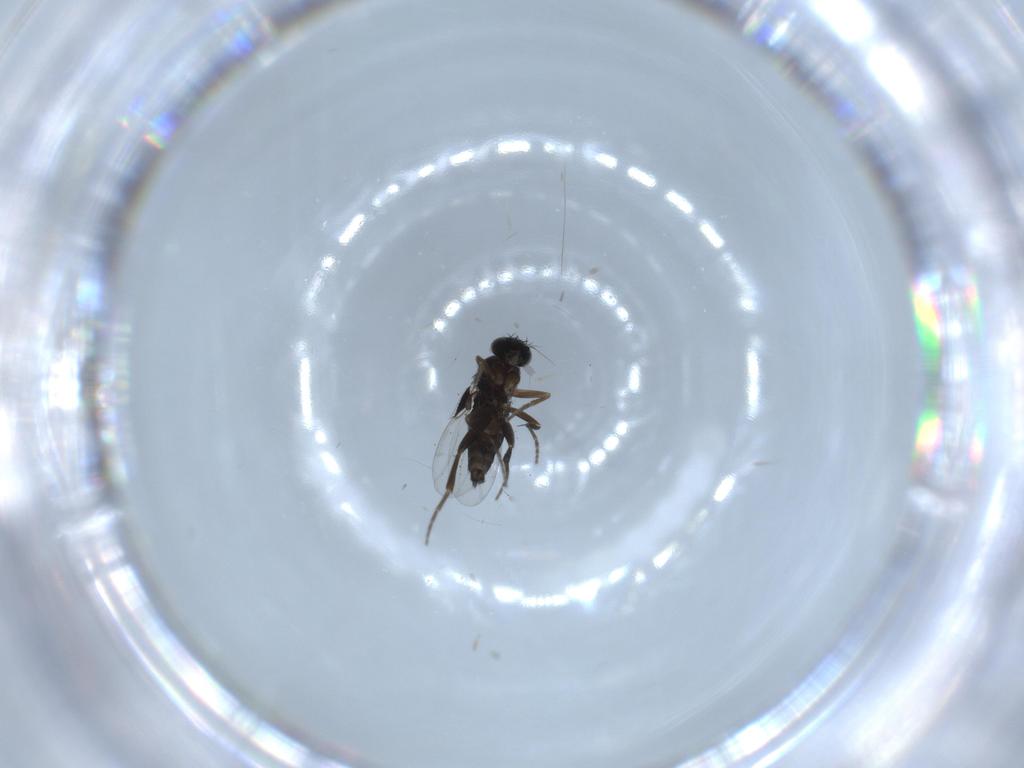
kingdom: Animalia
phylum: Arthropoda
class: Insecta
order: Diptera
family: Phoridae
